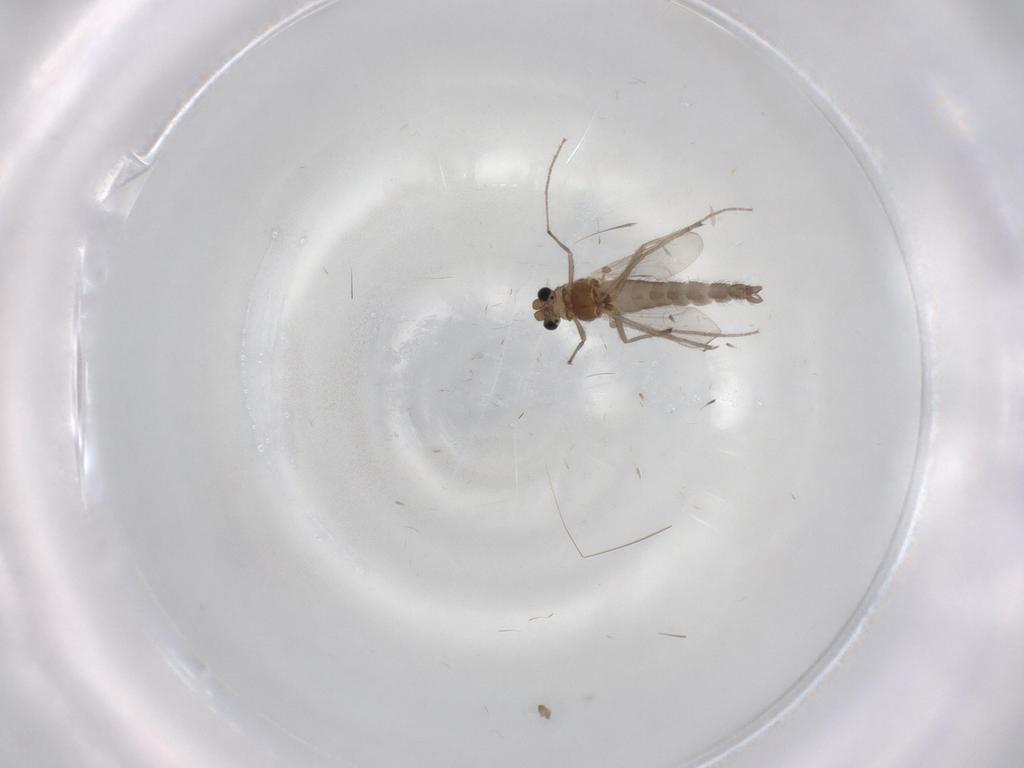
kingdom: Animalia
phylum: Arthropoda
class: Insecta
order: Diptera
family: Chironomidae
